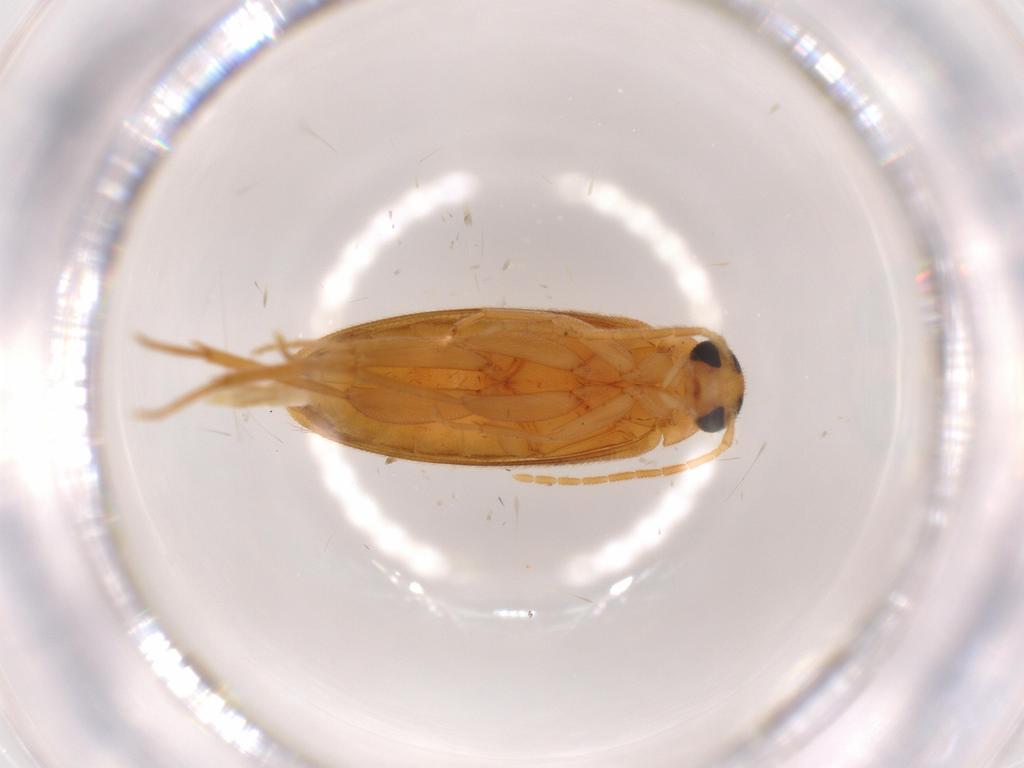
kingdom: Animalia
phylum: Arthropoda
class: Insecta
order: Coleoptera
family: Scraptiidae
